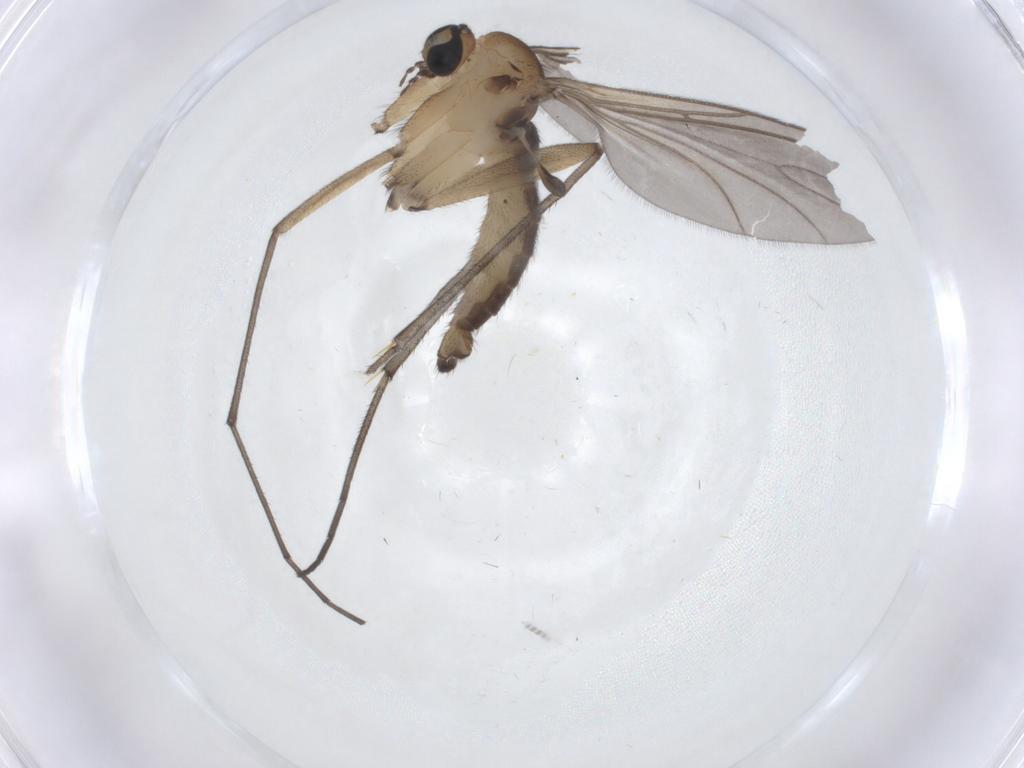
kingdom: Animalia
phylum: Arthropoda
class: Insecta
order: Diptera
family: Sciaridae
